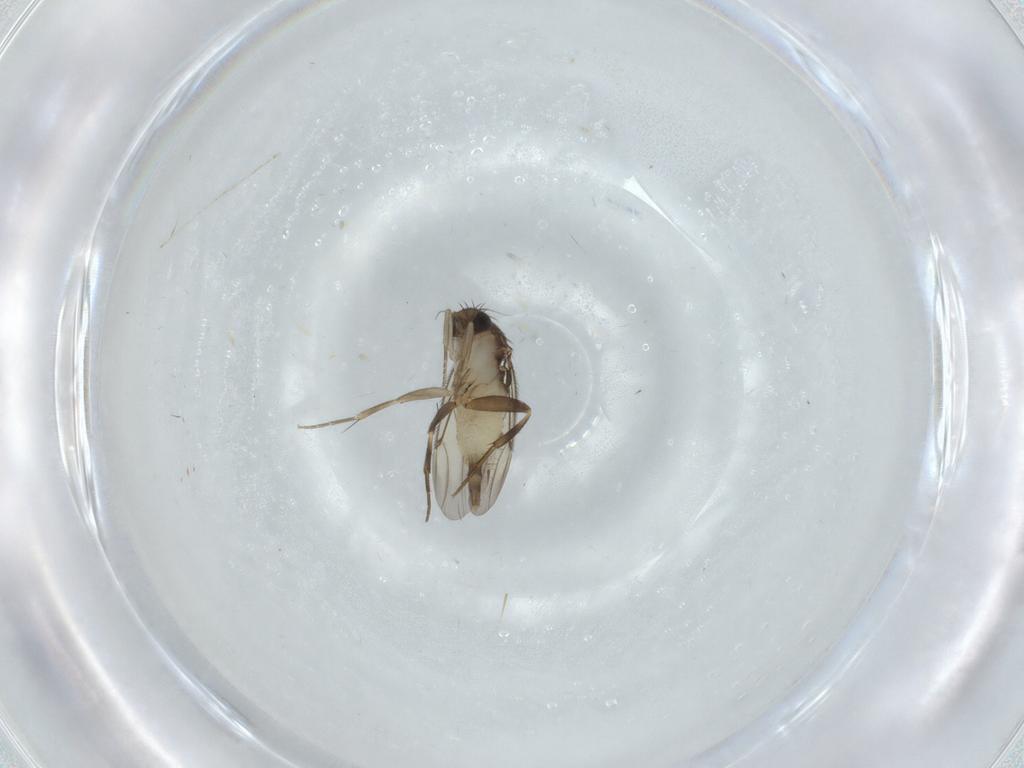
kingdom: Animalia
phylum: Arthropoda
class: Insecta
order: Diptera
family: Phoridae
